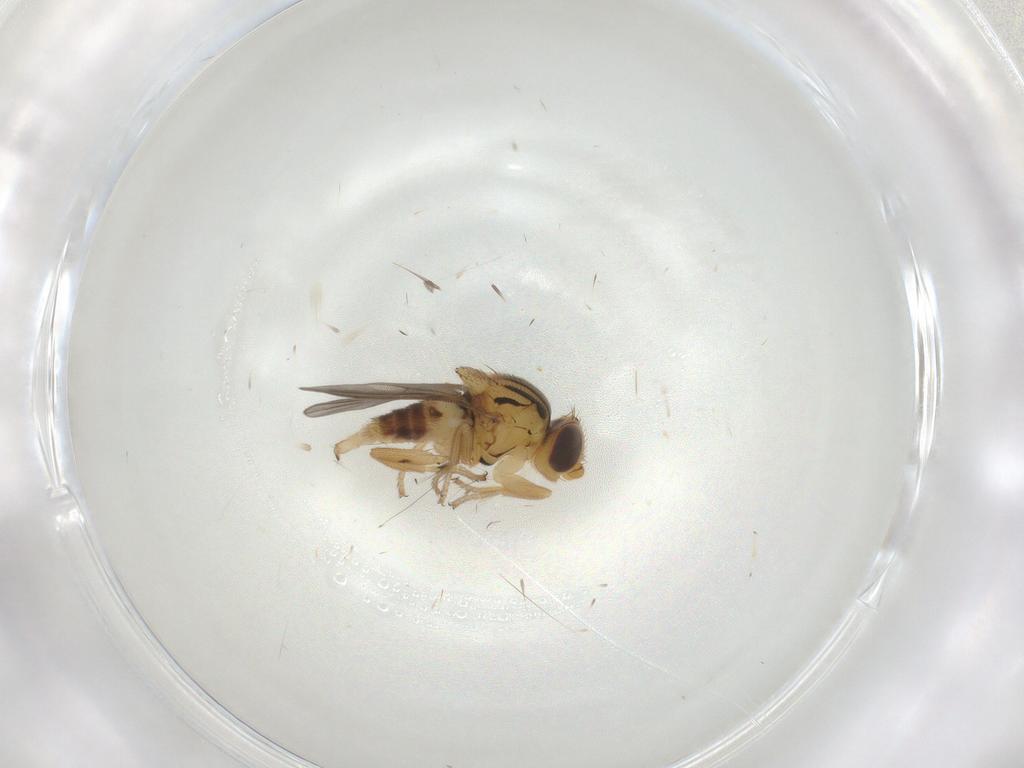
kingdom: Animalia
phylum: Arthropoda
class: Insecta
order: Diptera
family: Chloropidae
